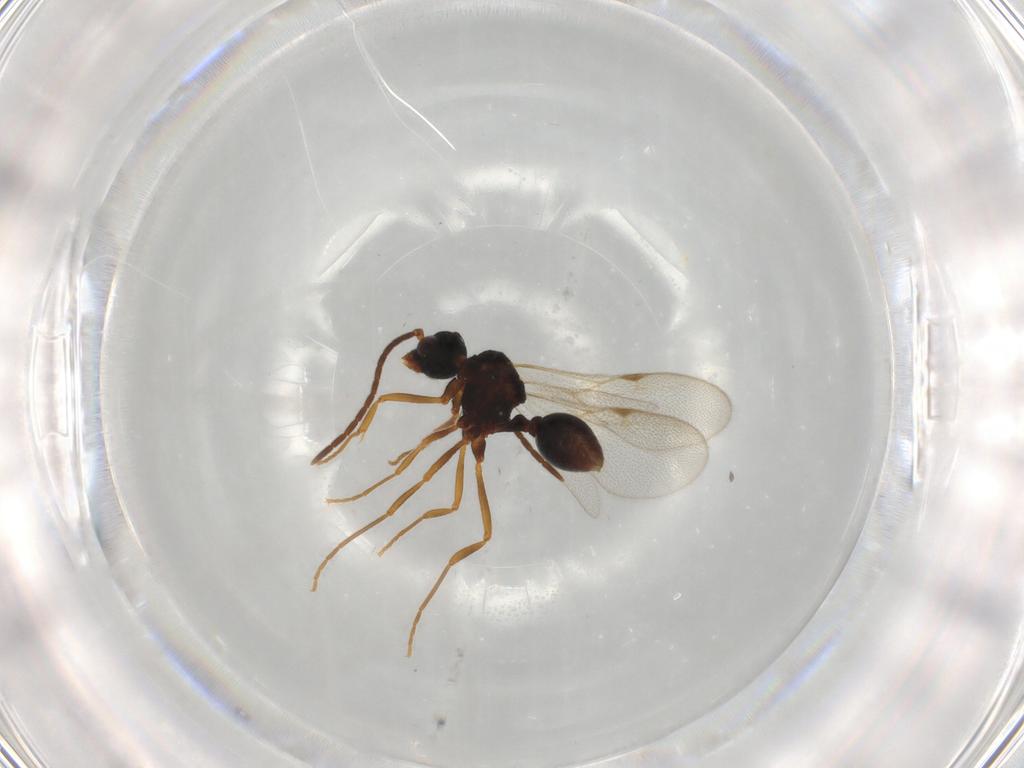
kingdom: Animalia
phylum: Arthropoda
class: Insecta
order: Hymenoptera
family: Formicidae
